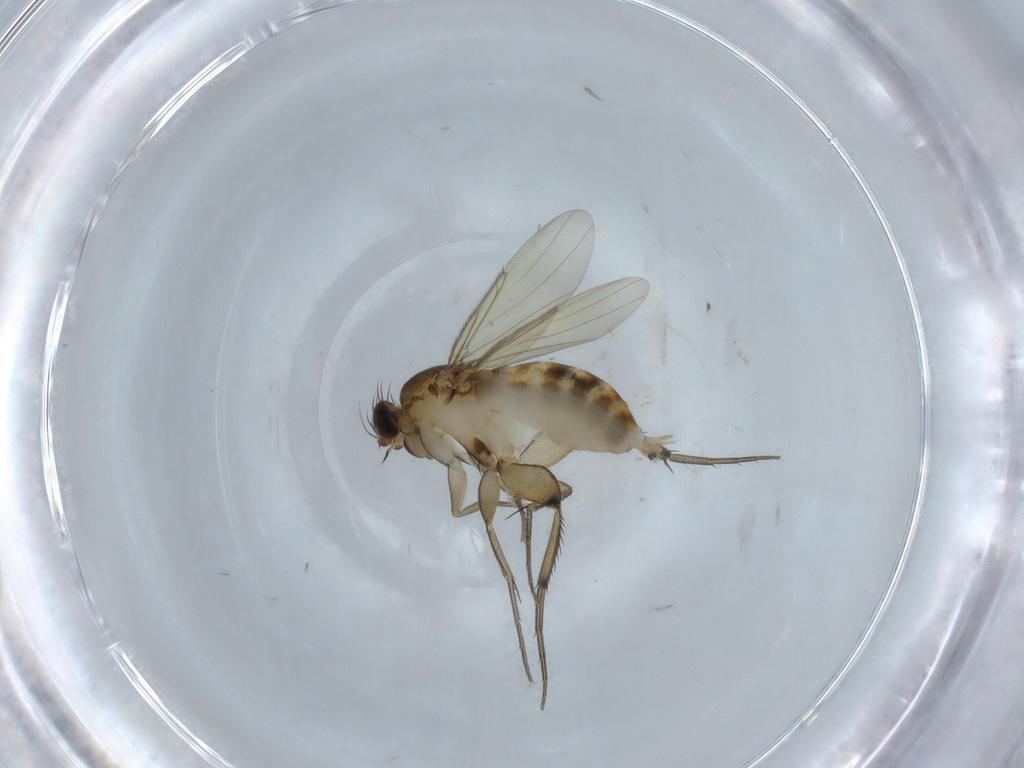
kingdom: Animalia
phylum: Arthropoda
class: Insecta
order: Diptera
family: Phoridae
